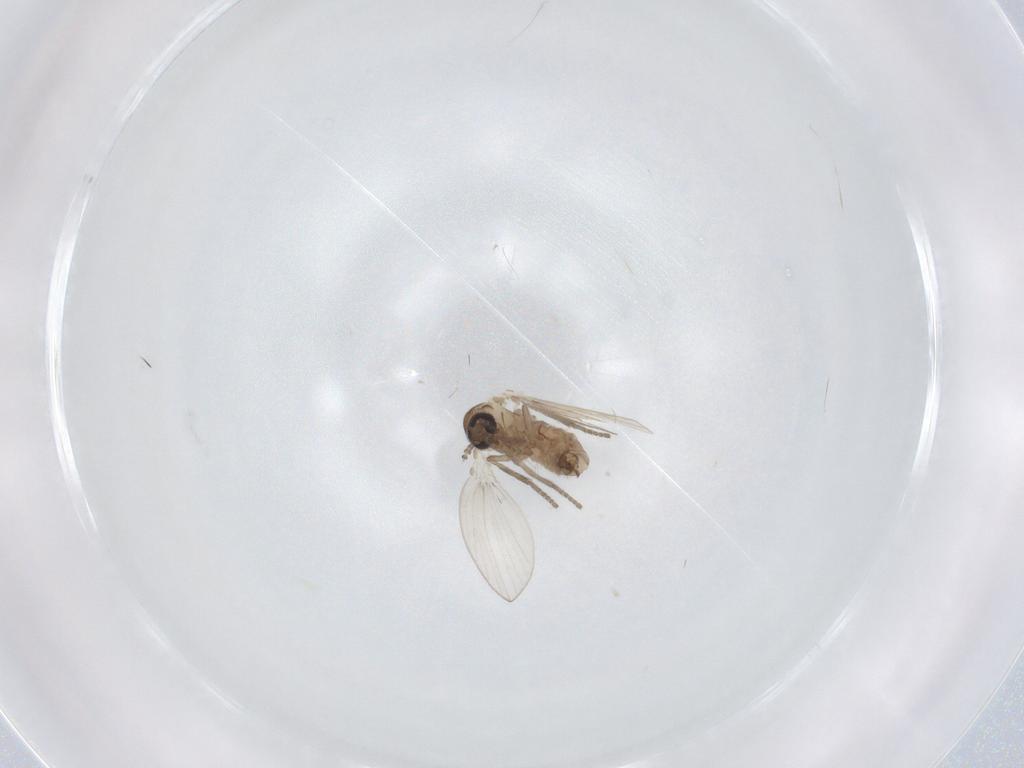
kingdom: Animalia
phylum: Arthropoda
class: Insecta
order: Diptera
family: Psychodidae
